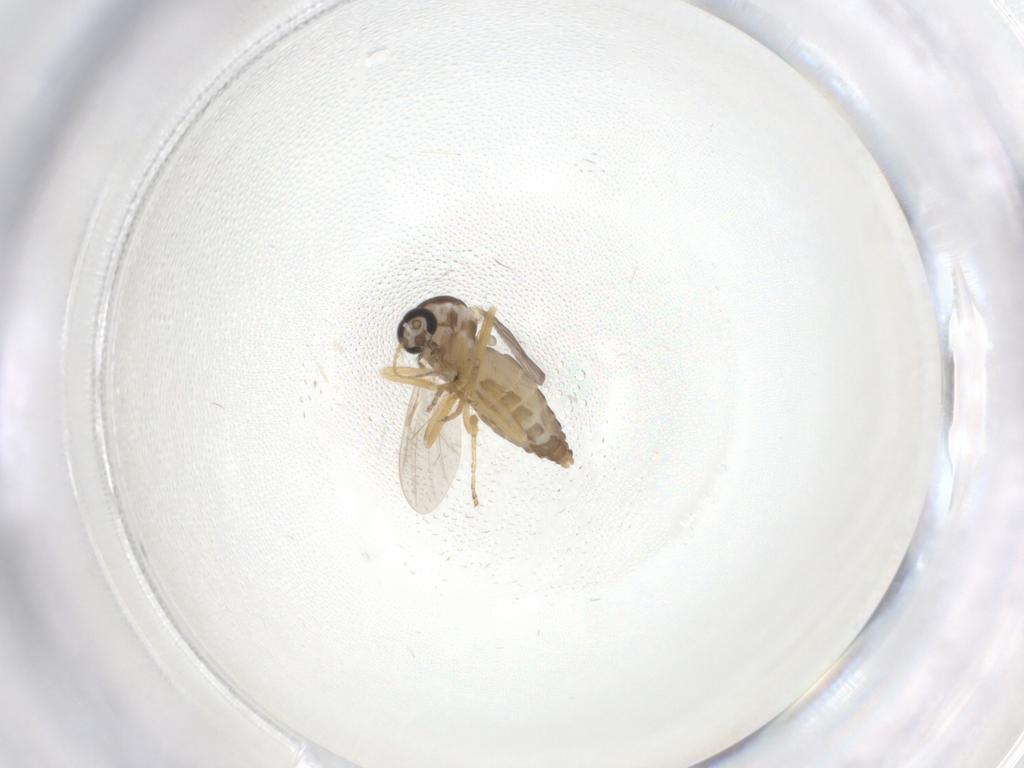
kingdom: Animalia
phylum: Arthropoda
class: Insecta
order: Diptera
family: Ceratopogonidae
